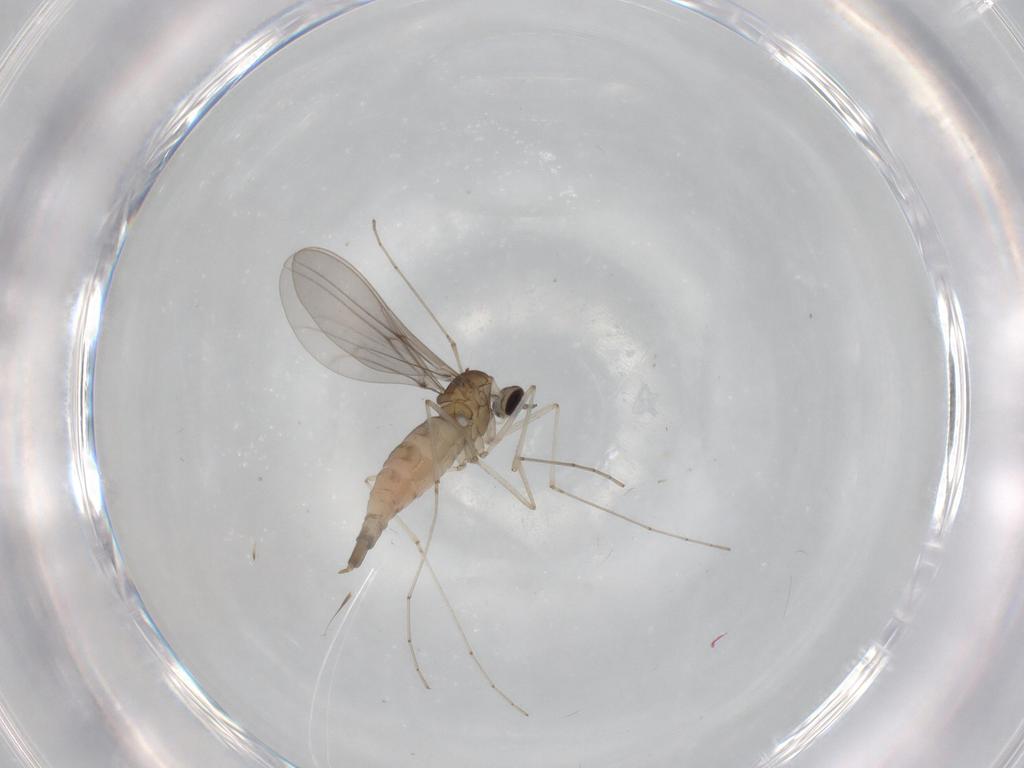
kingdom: Animalia
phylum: Arthropoda
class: Insecta
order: Diptera
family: Cecidomyiidae
